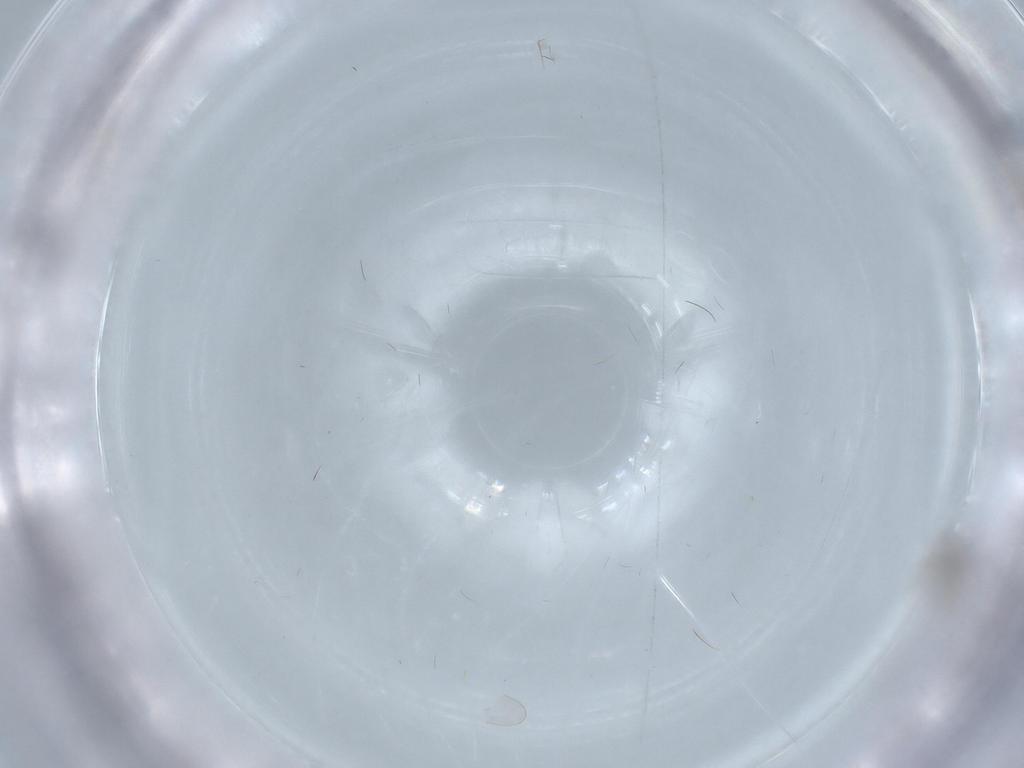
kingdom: Animalia
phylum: Arthropoda
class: Insecta
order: Diptera
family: Cecidomyiidae
